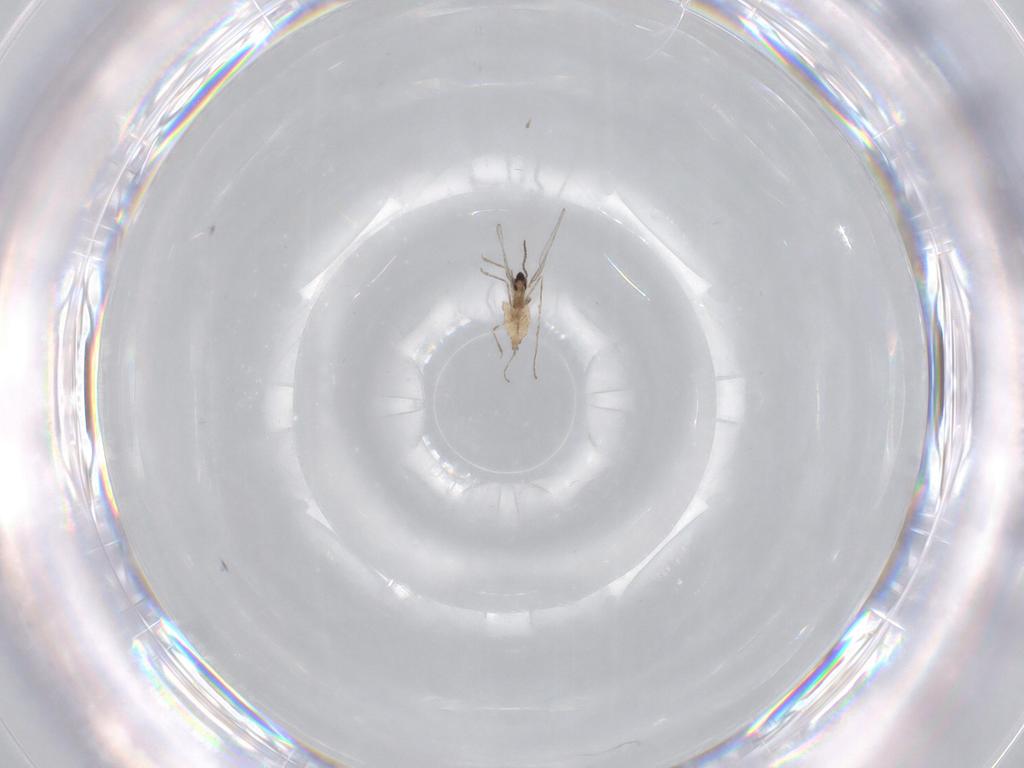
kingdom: Animalia
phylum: Arthropoda
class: Insecta
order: Diptera
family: Cecidomyiidae
